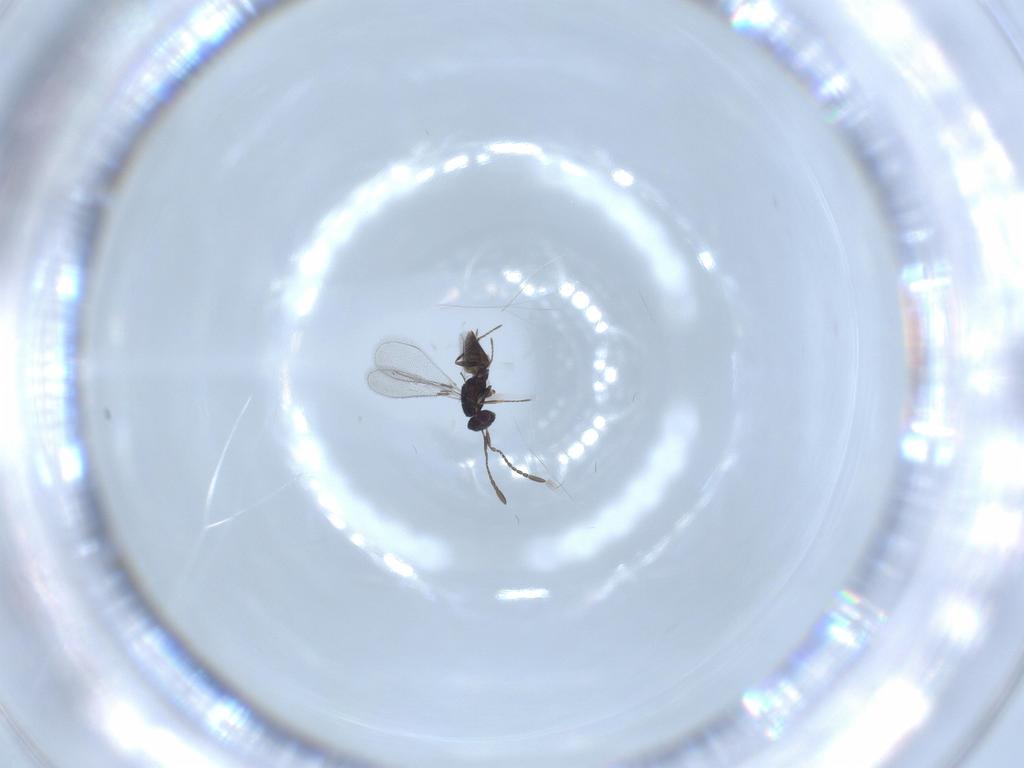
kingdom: Animalia
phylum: Arthropoda
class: Insecta
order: Hymenoptera
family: Mymaridae
